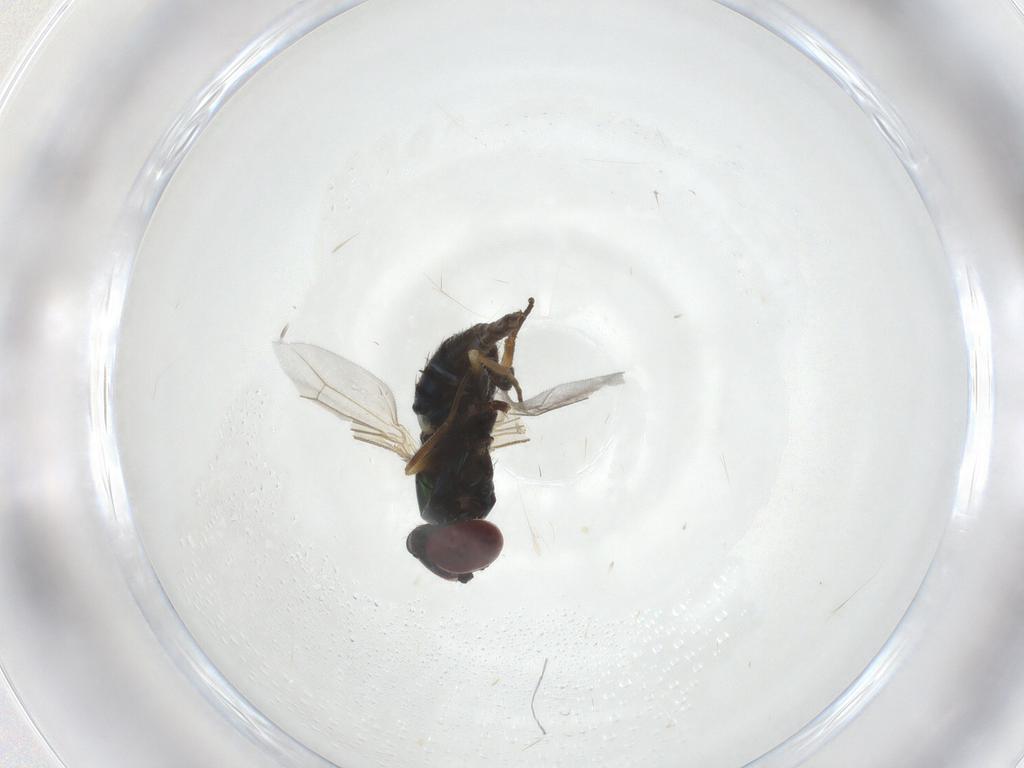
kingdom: Animalia
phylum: Arthropoda
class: Insecta
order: Diptera
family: Dolichopodidae
